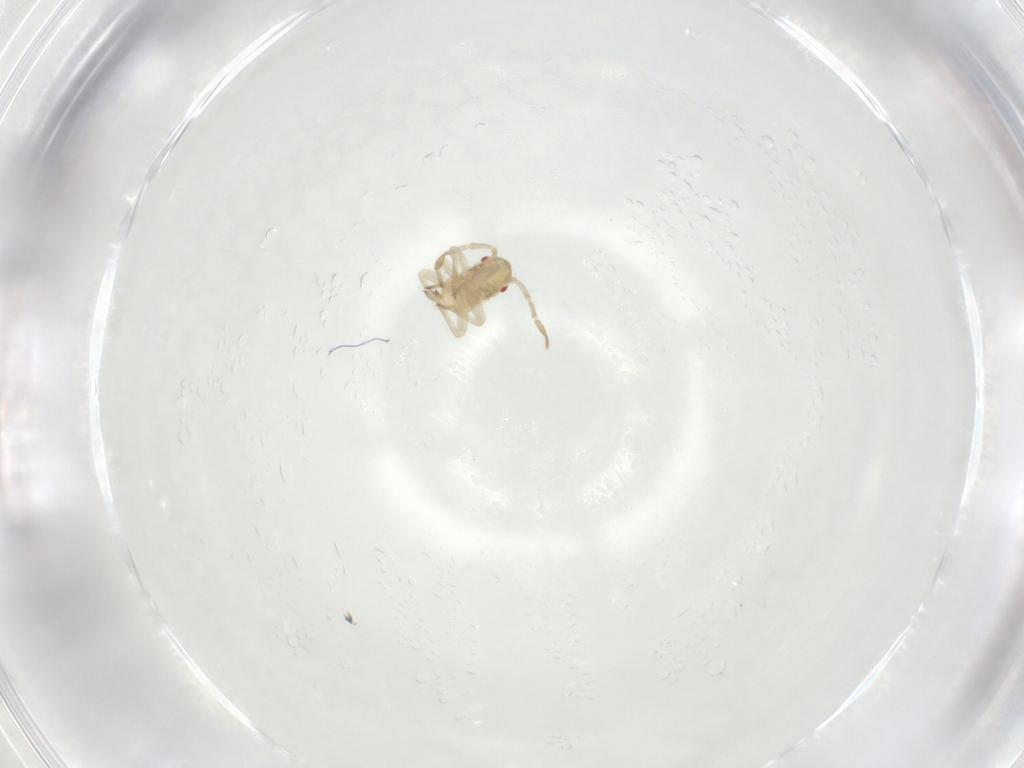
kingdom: Animalia
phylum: Arthropoda
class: Insecta
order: Hemiptera
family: Miridae
